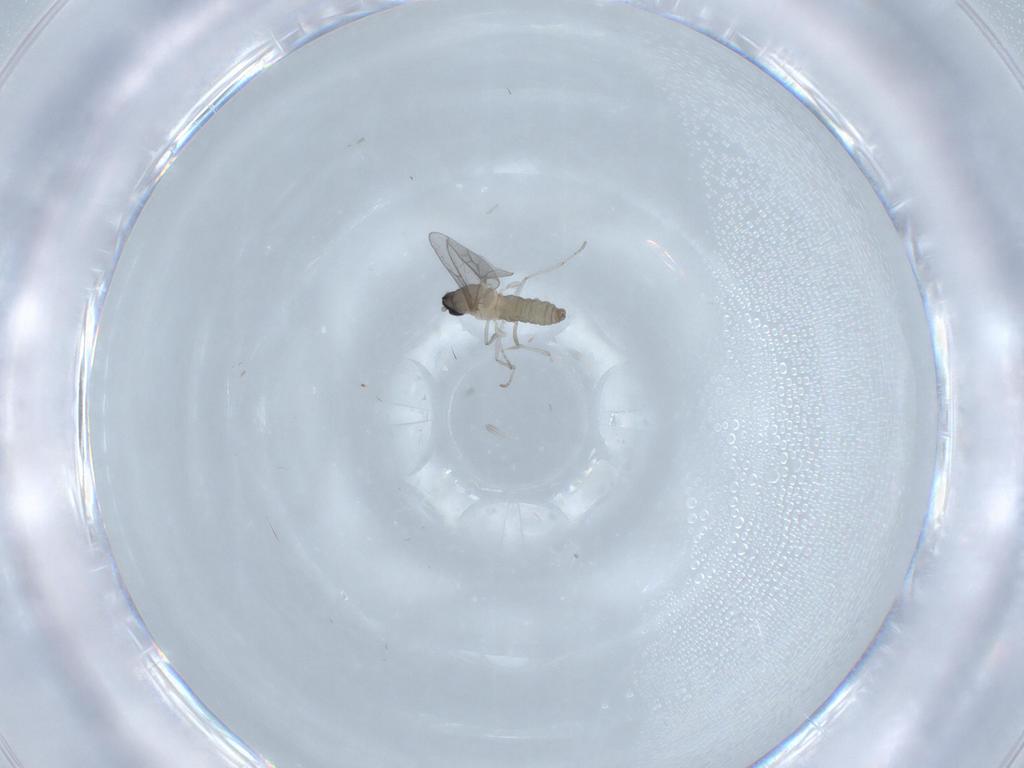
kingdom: Animalia
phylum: Arthropoda
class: Insecta
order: Diptera
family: Cecidomyiidae
